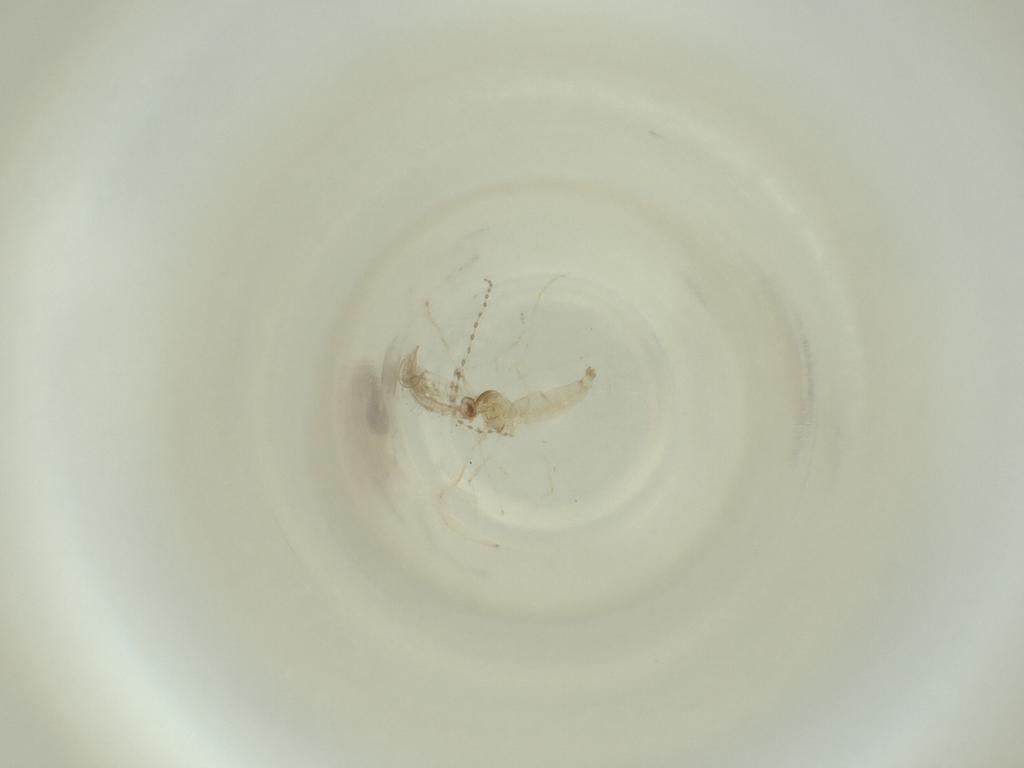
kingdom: Animalia
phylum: Arthropoda
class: Insecta
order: Diptera
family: Cecidomyiidae
